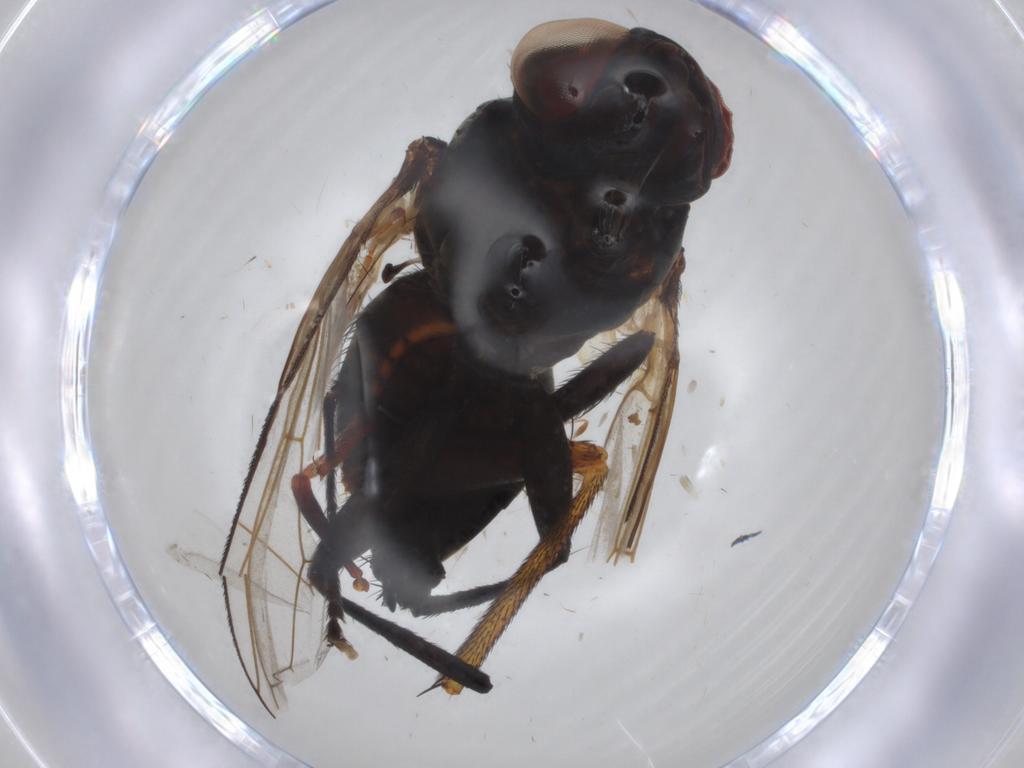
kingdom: Animalia
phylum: Arthropoda
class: Insecta
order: Diptera
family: Tachinidae
